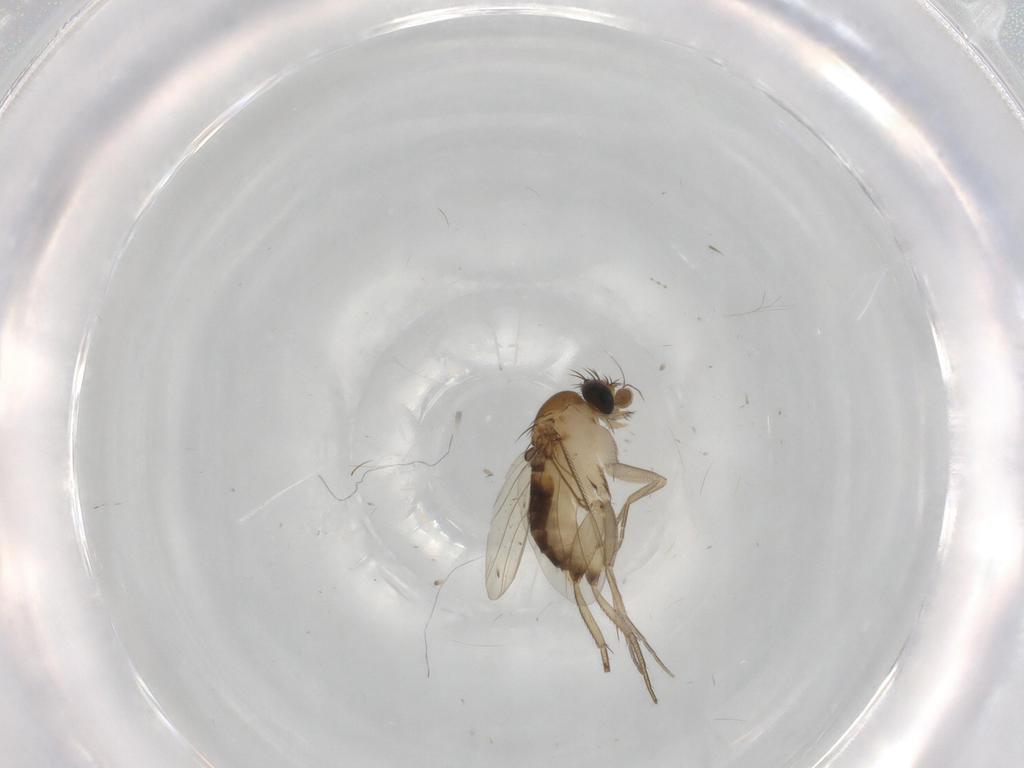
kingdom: Animalia
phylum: Arthropoda
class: Insecta
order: Diptera
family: Phoridae
